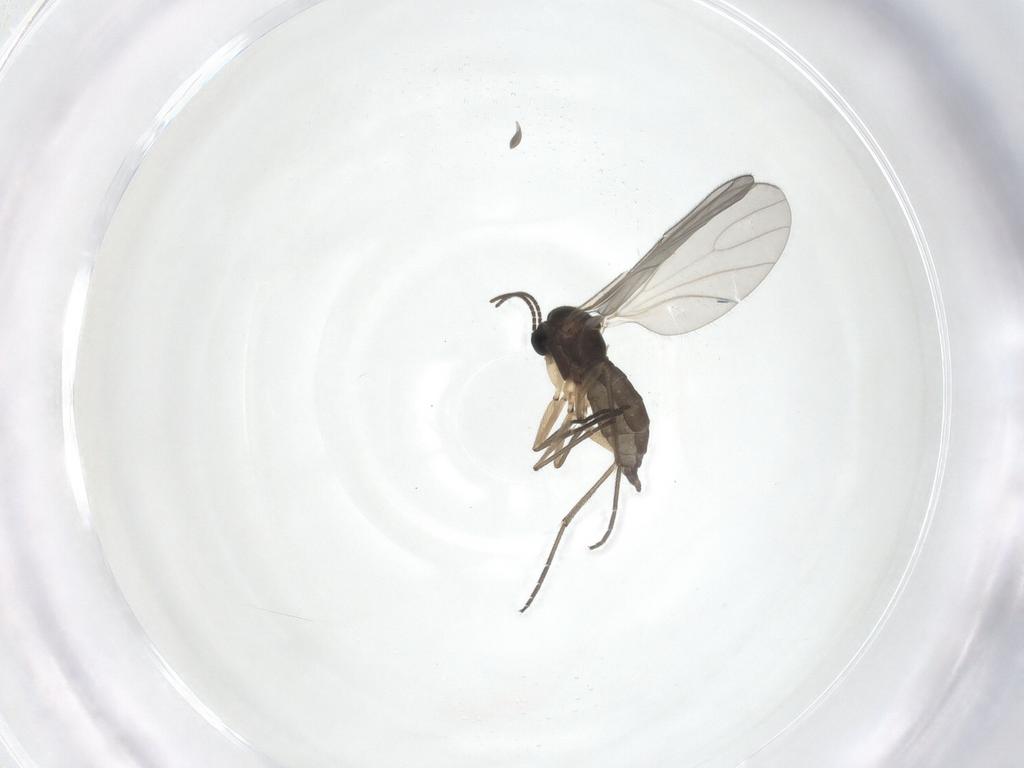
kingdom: Animalia
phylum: Arthropoda
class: Insecta
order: Diptera
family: Sciaridae
